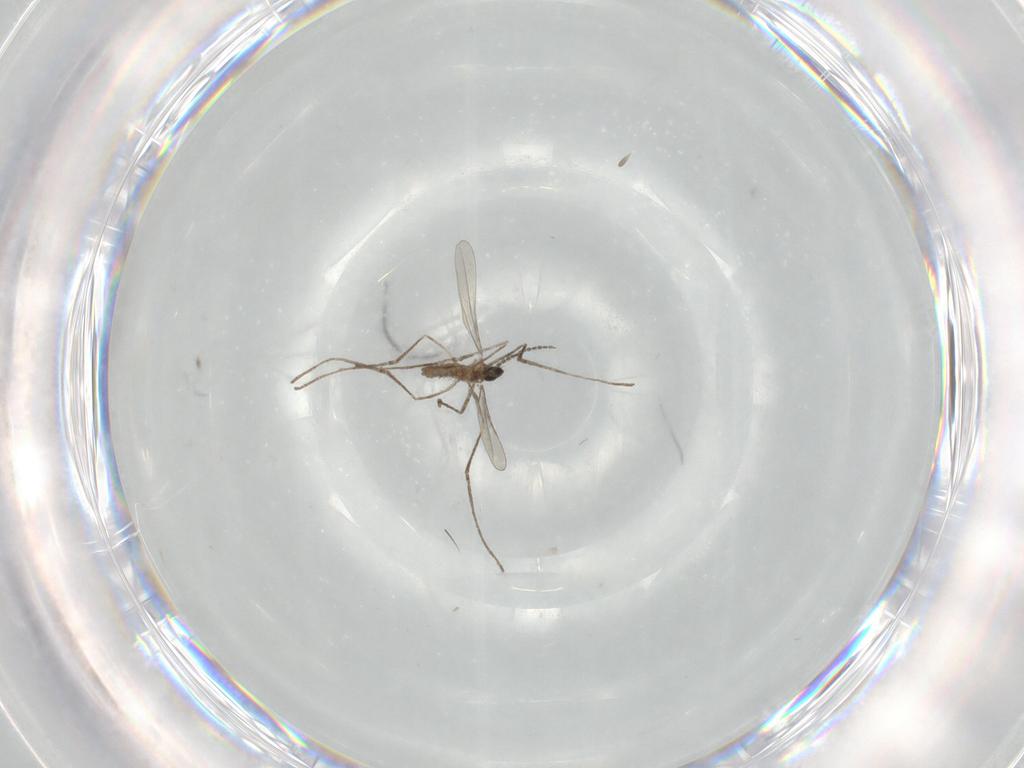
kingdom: Animalia
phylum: Arthropoda
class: Insecta
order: Diptera
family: Cecidomyiidae
